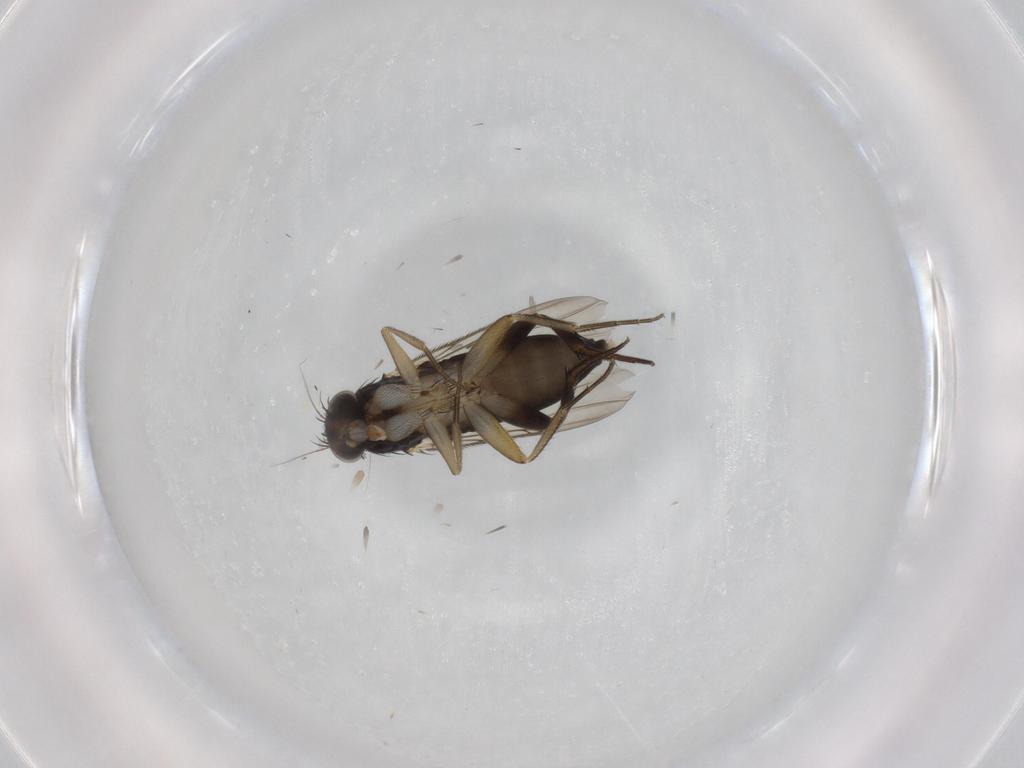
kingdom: Animalia
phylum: Arthropoda
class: Insecta
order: Diptera
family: Phoridae
